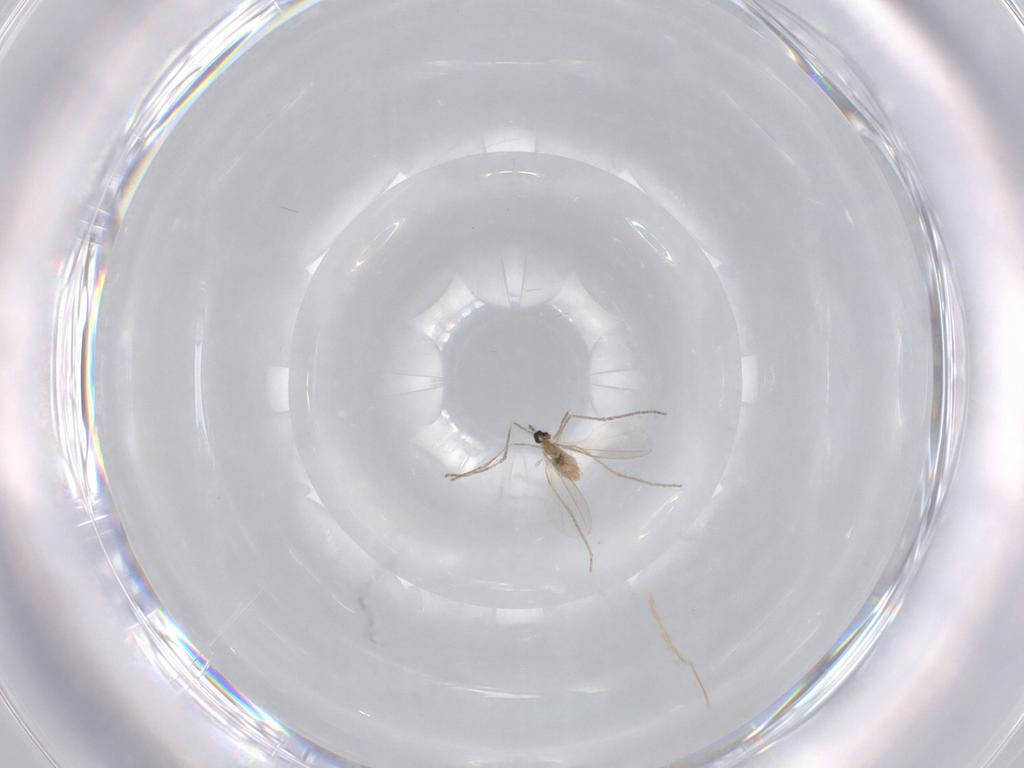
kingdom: Animalia
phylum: Arthropoda
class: Insecta
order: Diptera
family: Cecidomyiidae
